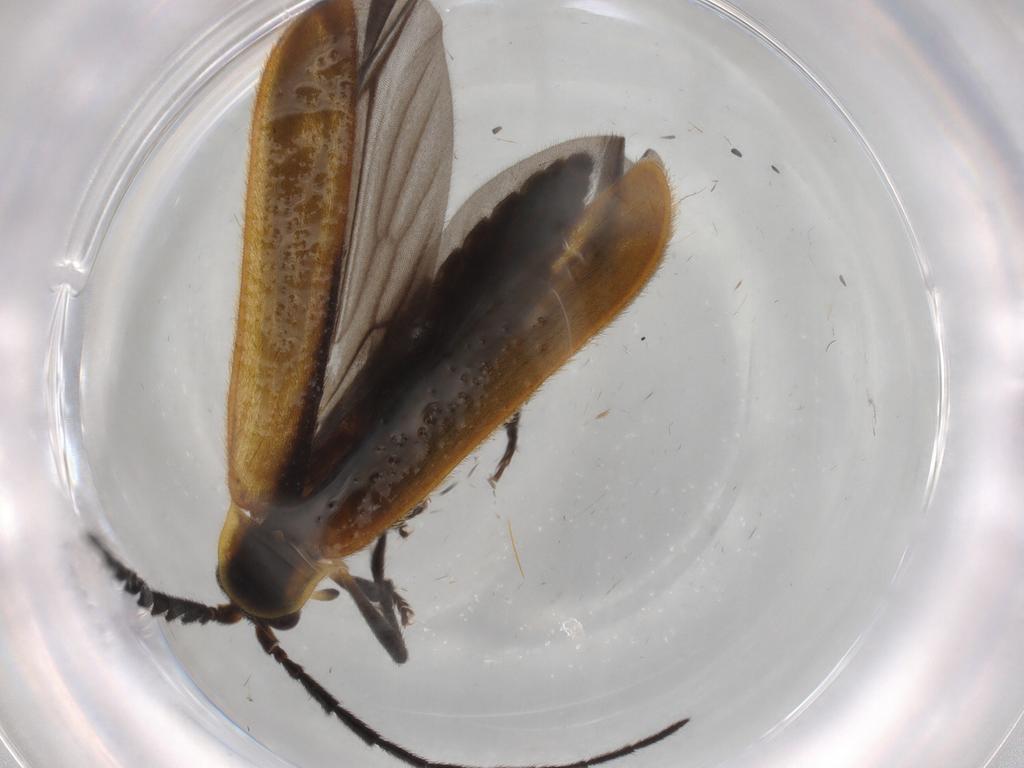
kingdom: Animalia
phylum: Arthropoda
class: Insecta
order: Coleoptera
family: Lycidae
